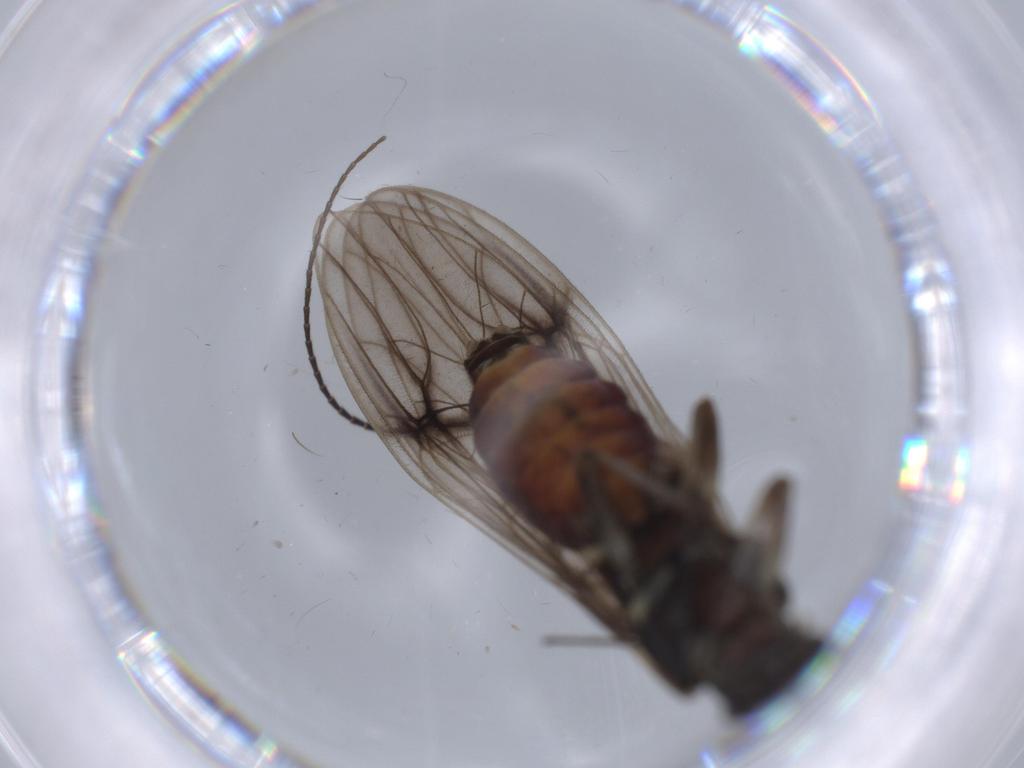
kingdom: Animalia
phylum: Arthropoda
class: Insecta
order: Plecoptera
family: Nemouridae
